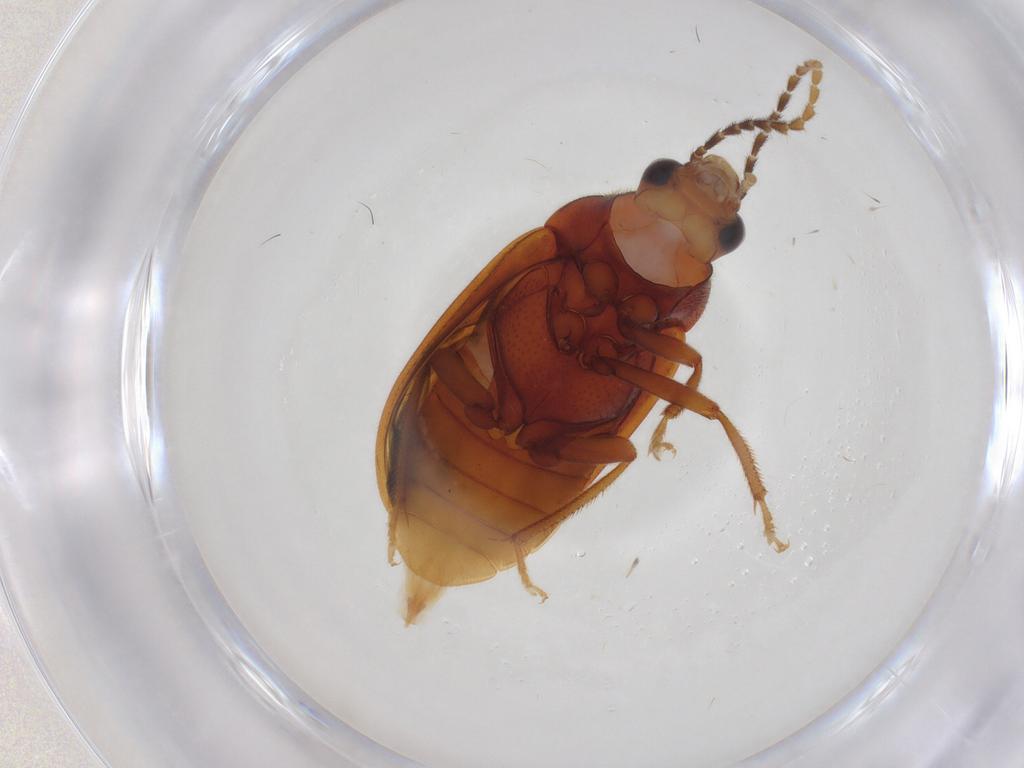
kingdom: Animalia
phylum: Arthropoda
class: Insecta
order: Coleoptera
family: Ptilodactylidae
